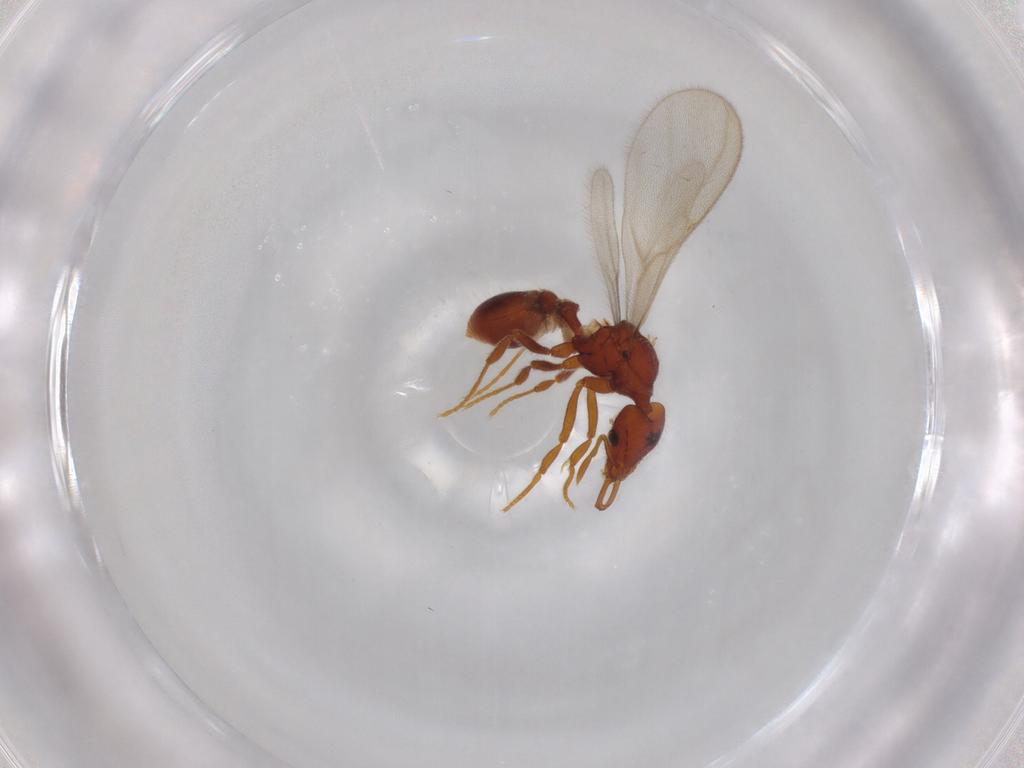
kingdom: Animalia
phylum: Arthropoda
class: Insecta
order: Hymenoptera
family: Formicidae
